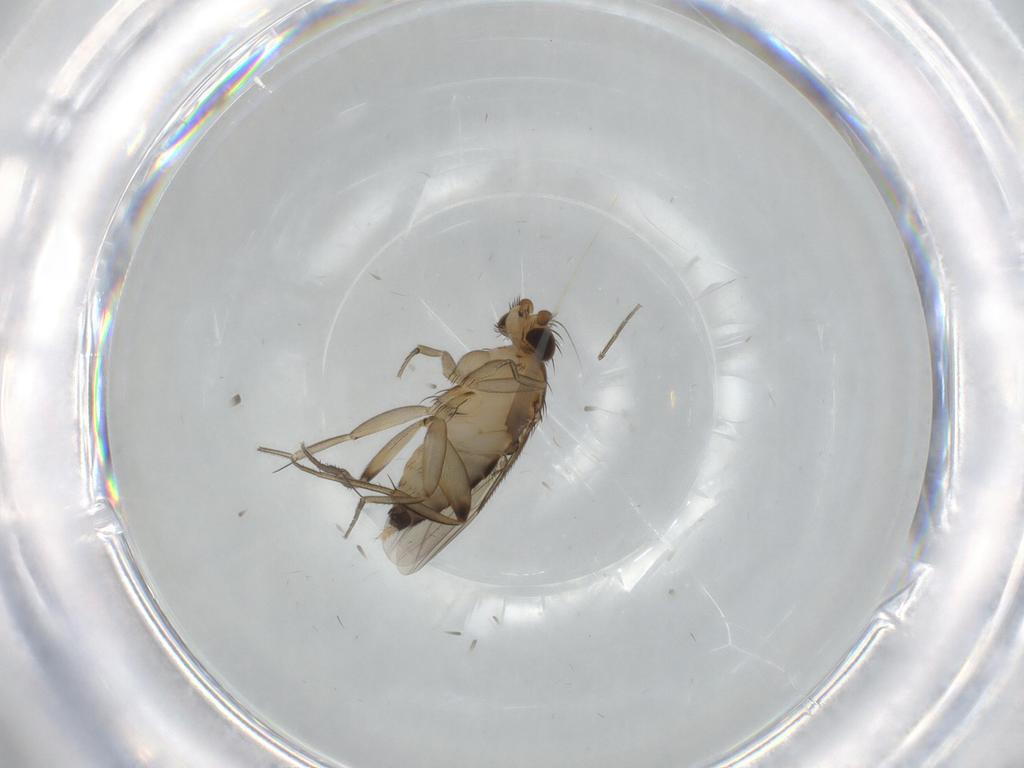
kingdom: Animalia
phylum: Arthropoda
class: Insecta
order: Diptera
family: Phoridae
